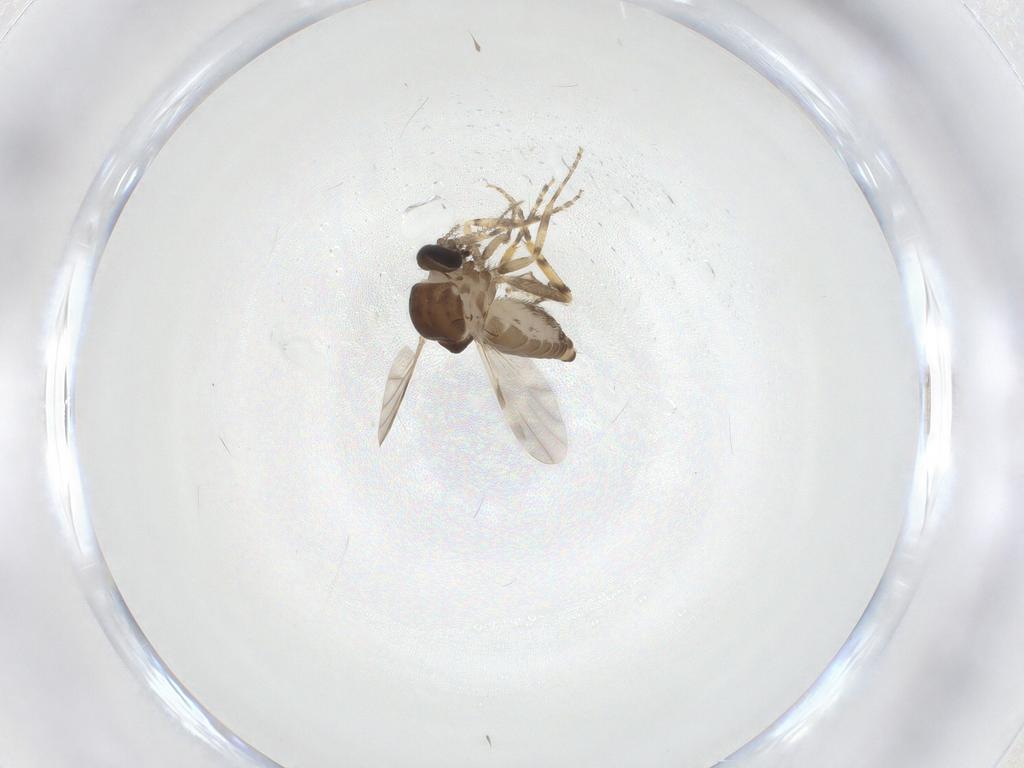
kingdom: Animalia
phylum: Arthropoda
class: Insecta
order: Diptera
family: Ceratopogonidae
